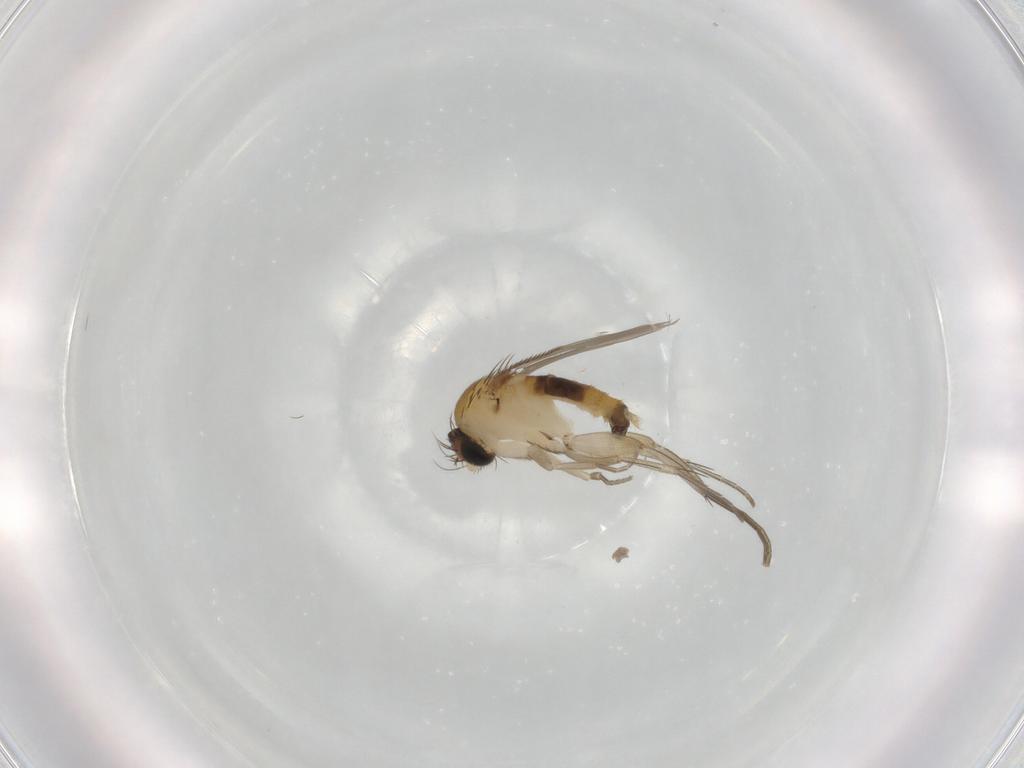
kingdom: Animalia
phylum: Arthropoda
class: Insecta
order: Diptera
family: Phoridae
